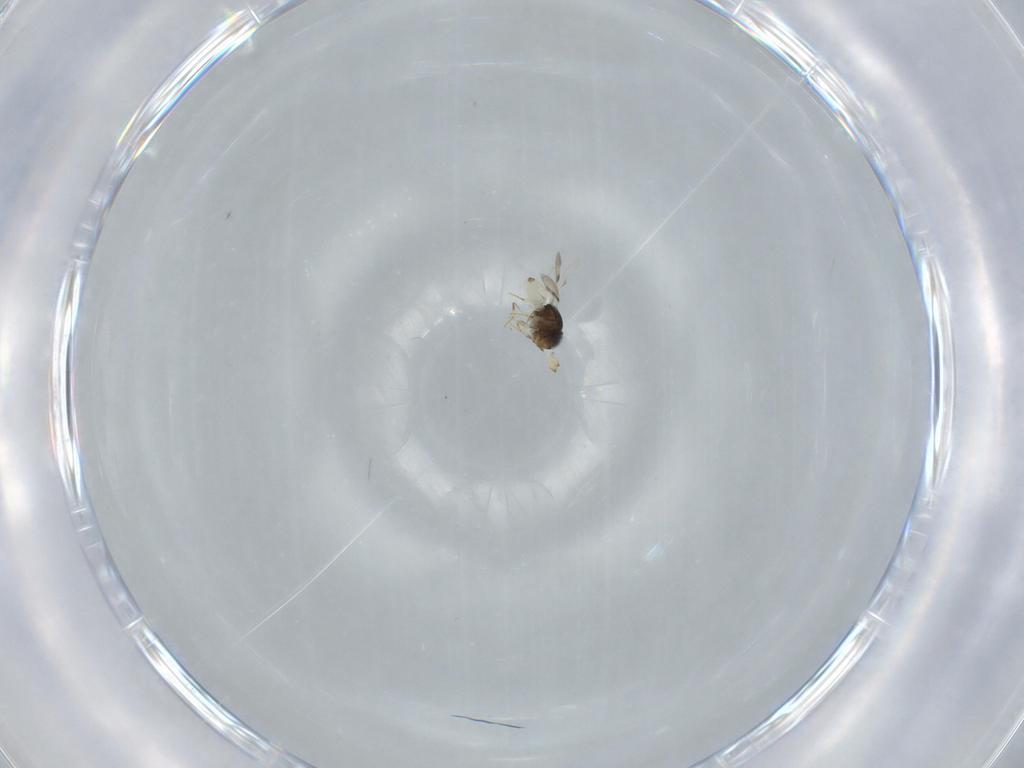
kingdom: Animalia
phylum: Arthropoda
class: Insecta
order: Hymenoptera
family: Scelionidae
